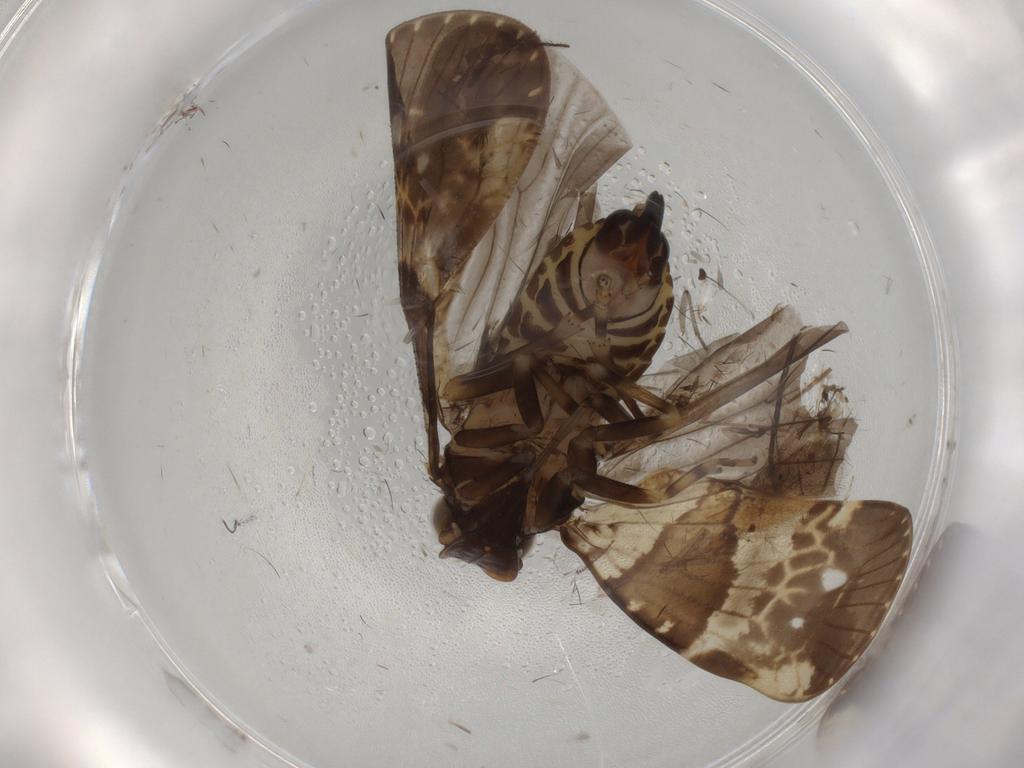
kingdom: Animalia
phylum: Arthropoda
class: Insecta
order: Hemiptera
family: Cixiidae
